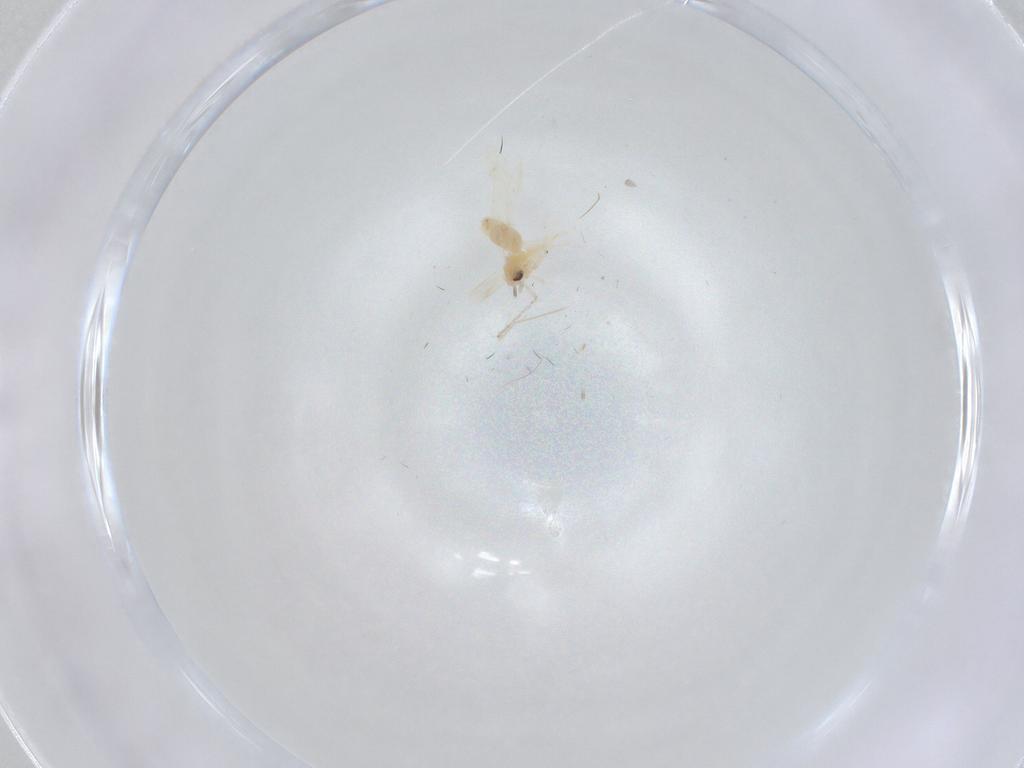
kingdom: Animalia
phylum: Arthropoda
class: Insecta
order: Hemiptera
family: Aleyrodidae
